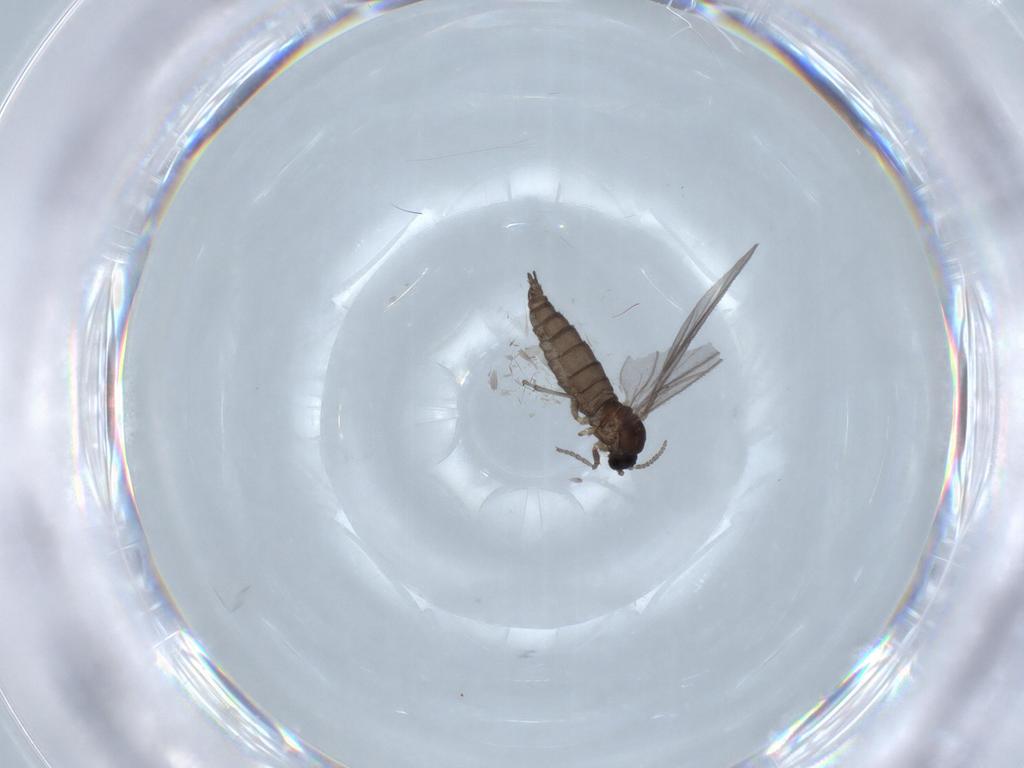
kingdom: Animalia
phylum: Arthropoda
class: Insecta
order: Diptera
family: Sciaridae
